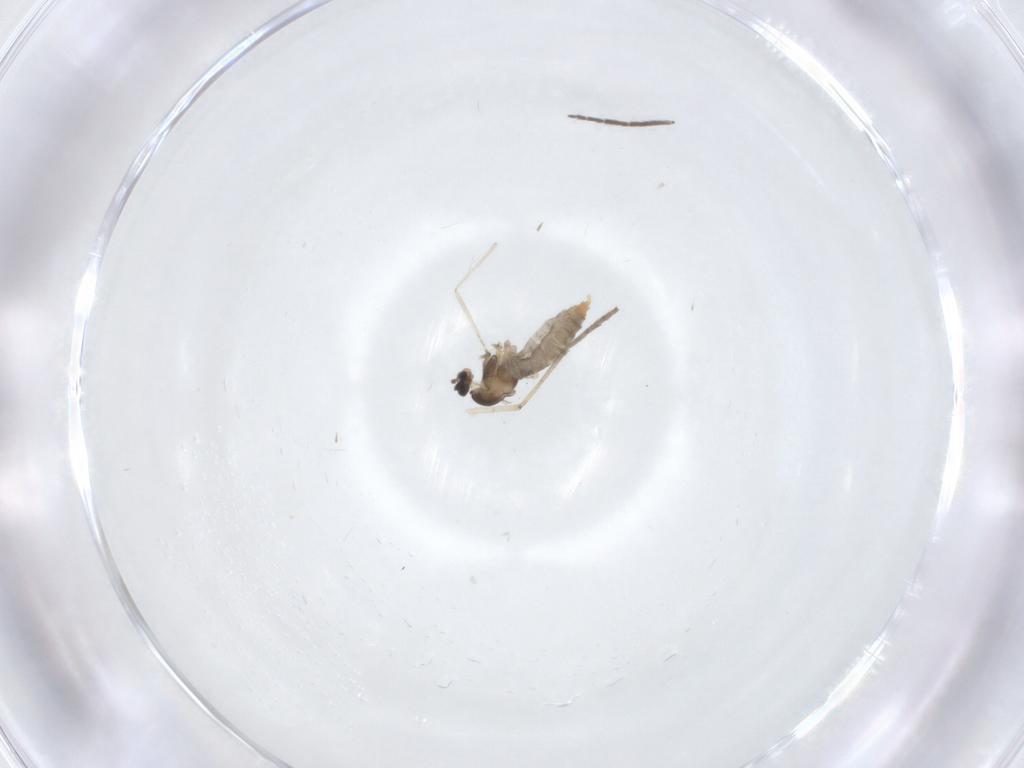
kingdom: Animalia
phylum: Arthropoda
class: Insecta
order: Diptera
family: Chironomidae
